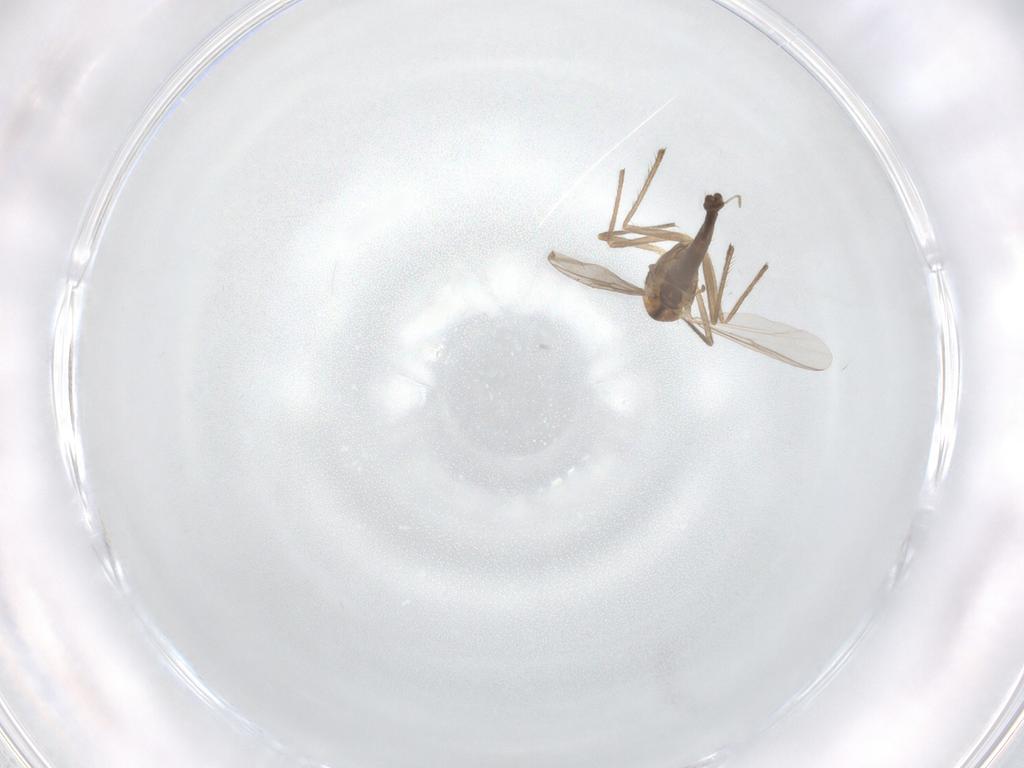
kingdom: Animalia
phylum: Arthropoda
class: Insecta
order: Diptera
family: Chironomidae
